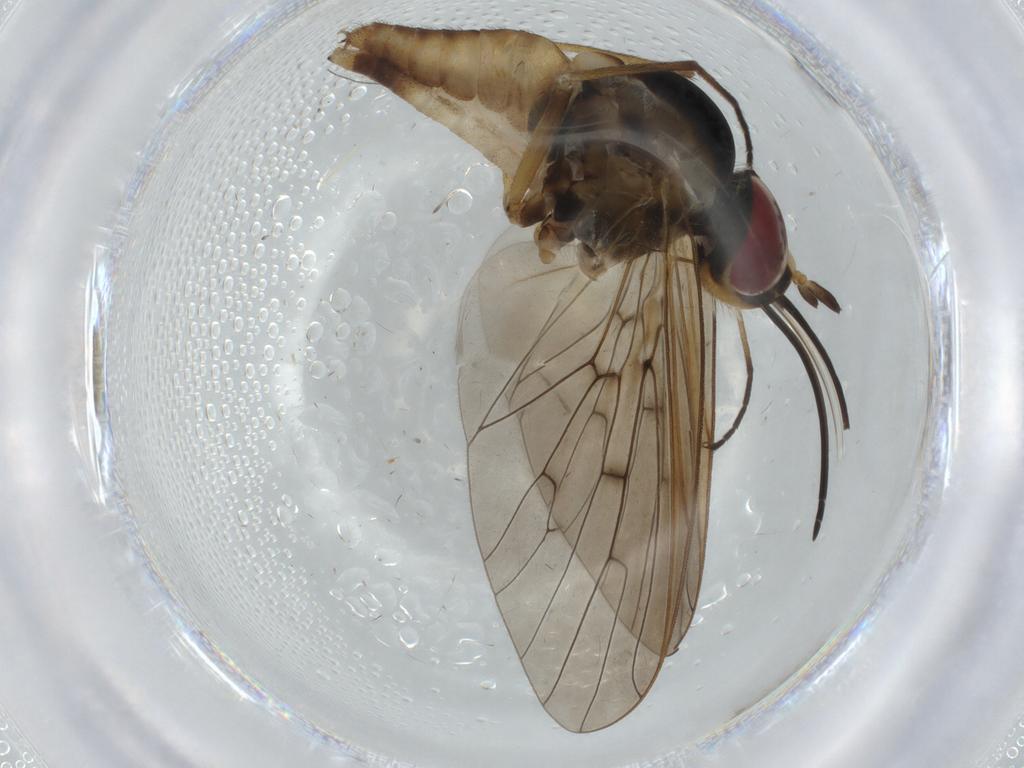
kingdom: Animalia
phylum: Arthropoda
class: Insecta
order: Diptera
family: Bombyliidae
